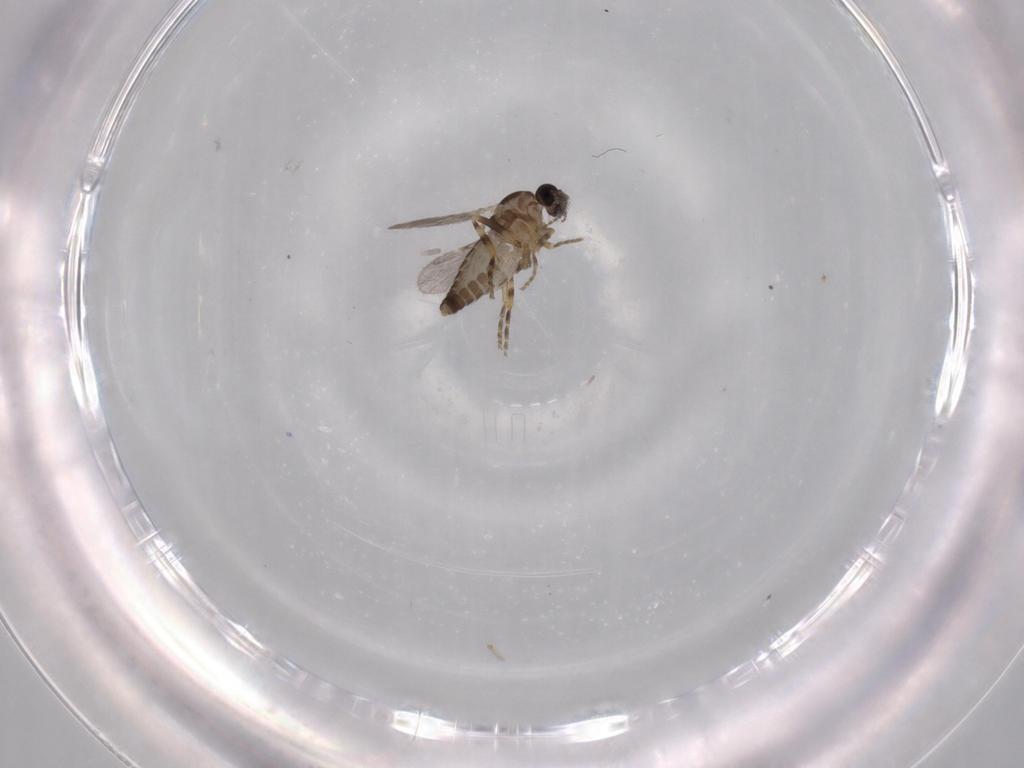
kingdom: Animalia
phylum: Arthropoda
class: Insecta
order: Diptera
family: Ceratopogonidae
